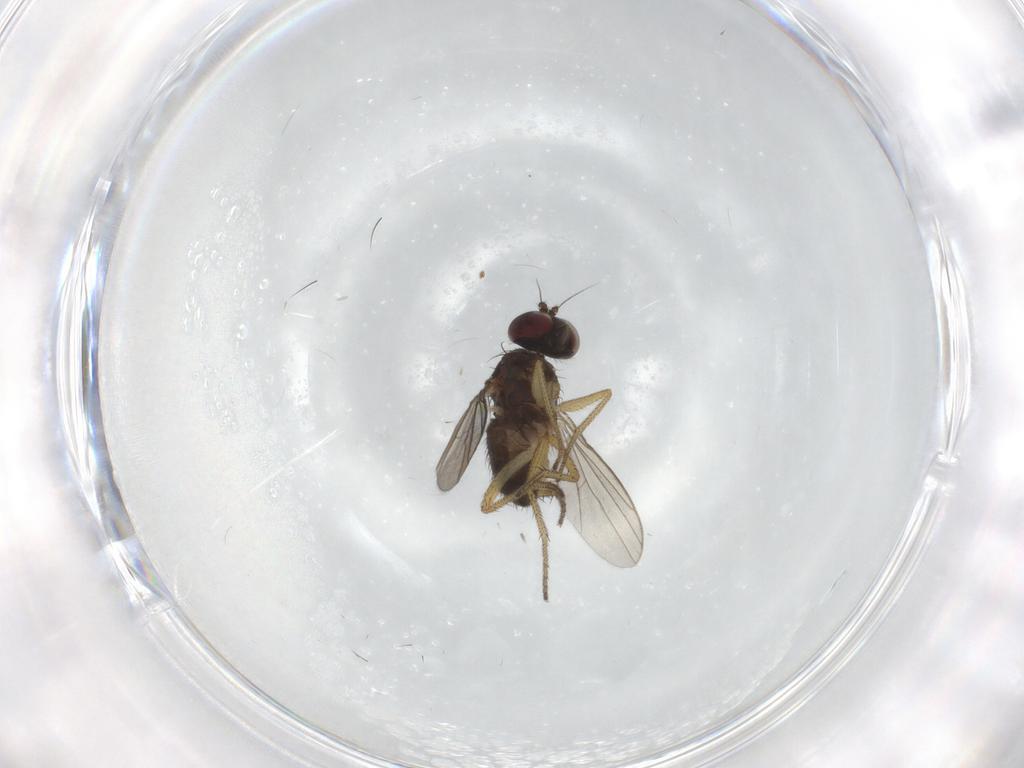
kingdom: Animalia
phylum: Arthropoda
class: Insecta
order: Diptera
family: Dolichopodidae
